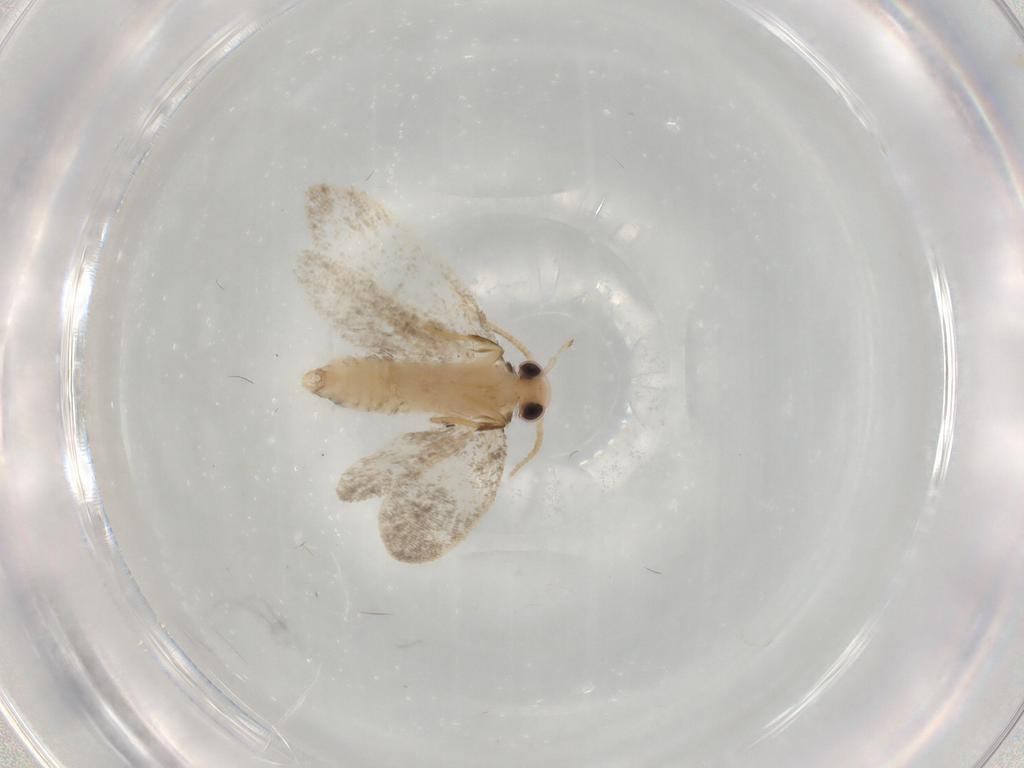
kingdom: Animalia
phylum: Arthropoda
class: Insecta
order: Lepidoptera
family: Psychidae
